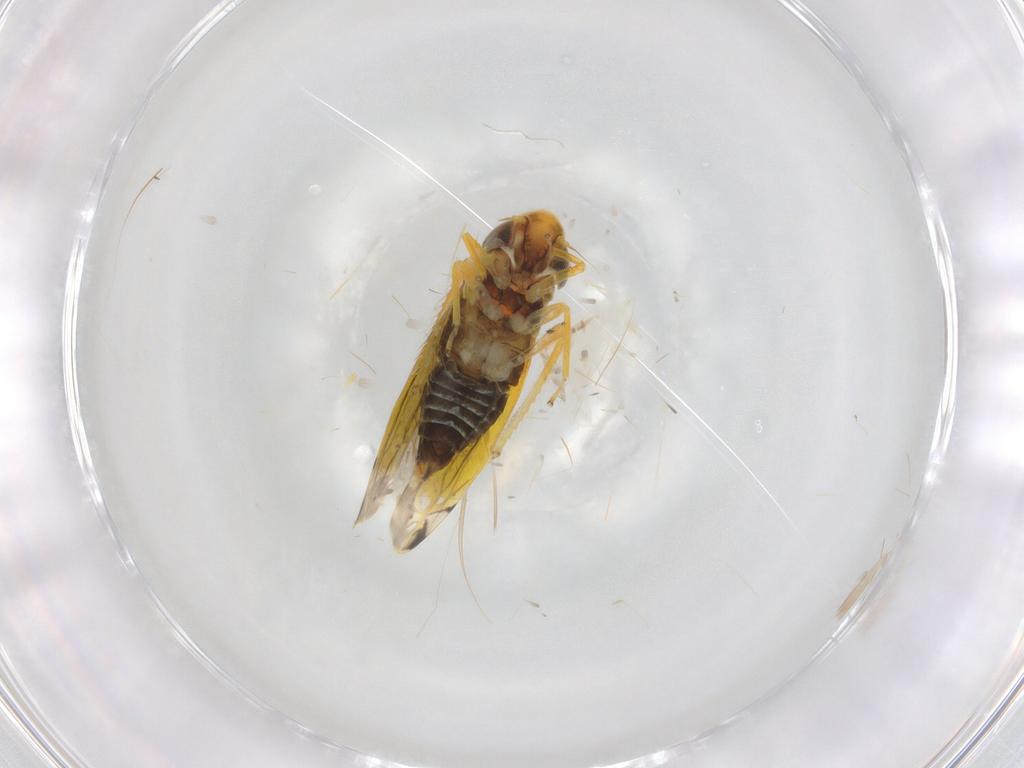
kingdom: Animalia
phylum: Arthropoda
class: Insecta
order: Hemiptera
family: Cicadellidae
